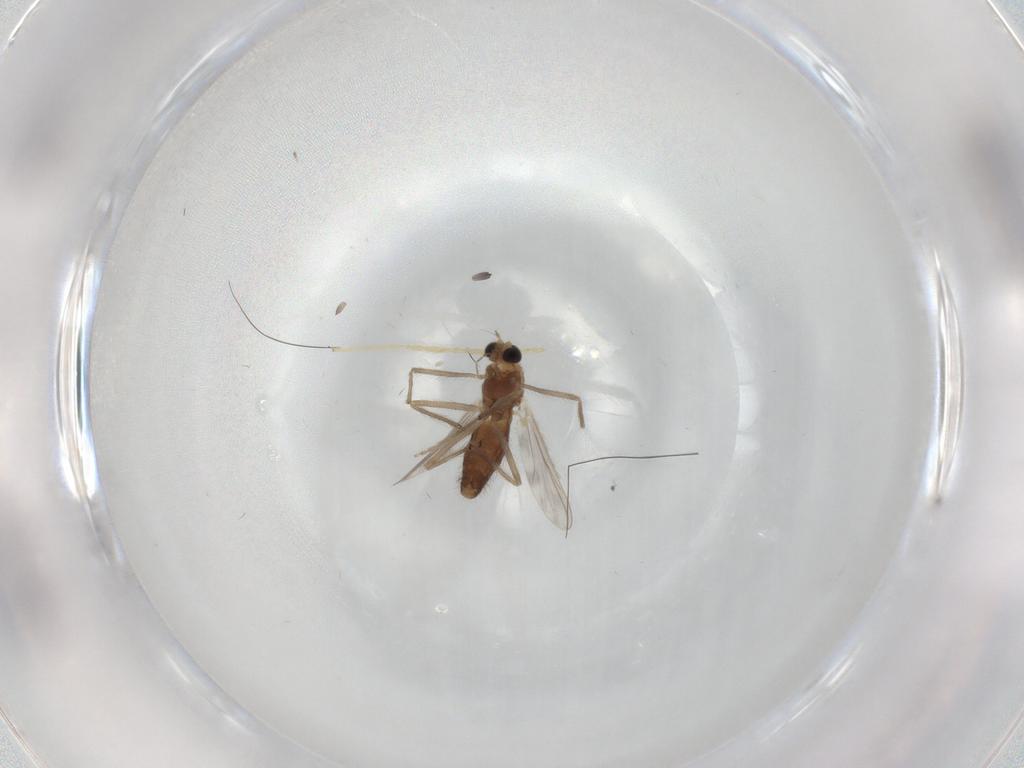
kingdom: Animalia
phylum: Arthropoda
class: Insecta
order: Diptera
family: Chironomidae
